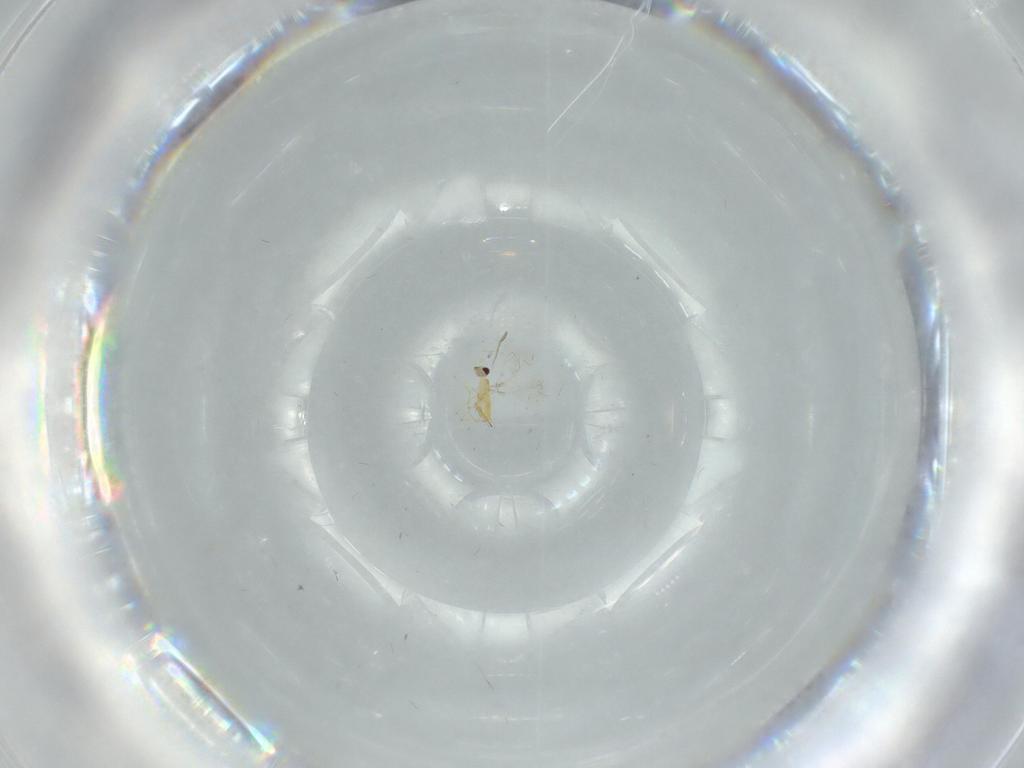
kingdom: Animalia
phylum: Arthropoda
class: Insecta
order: Hymenoptera
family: Mymaridae
